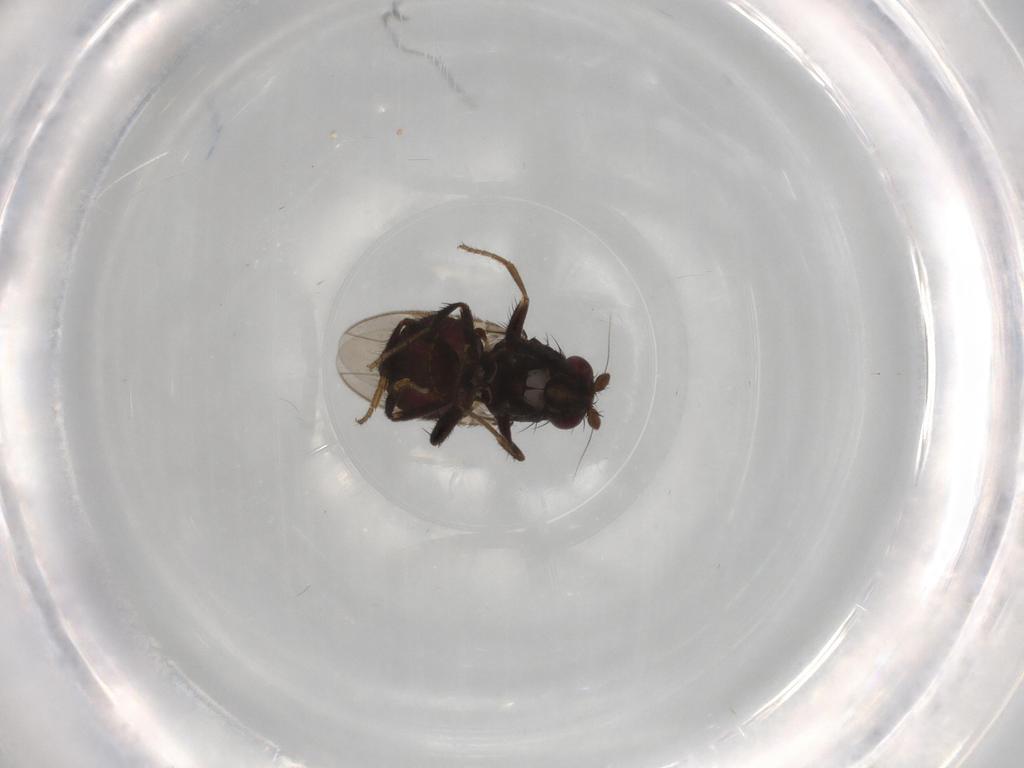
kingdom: Animalia
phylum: Arthropoda
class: Insecta
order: Diptera
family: Sphaeroceridae
